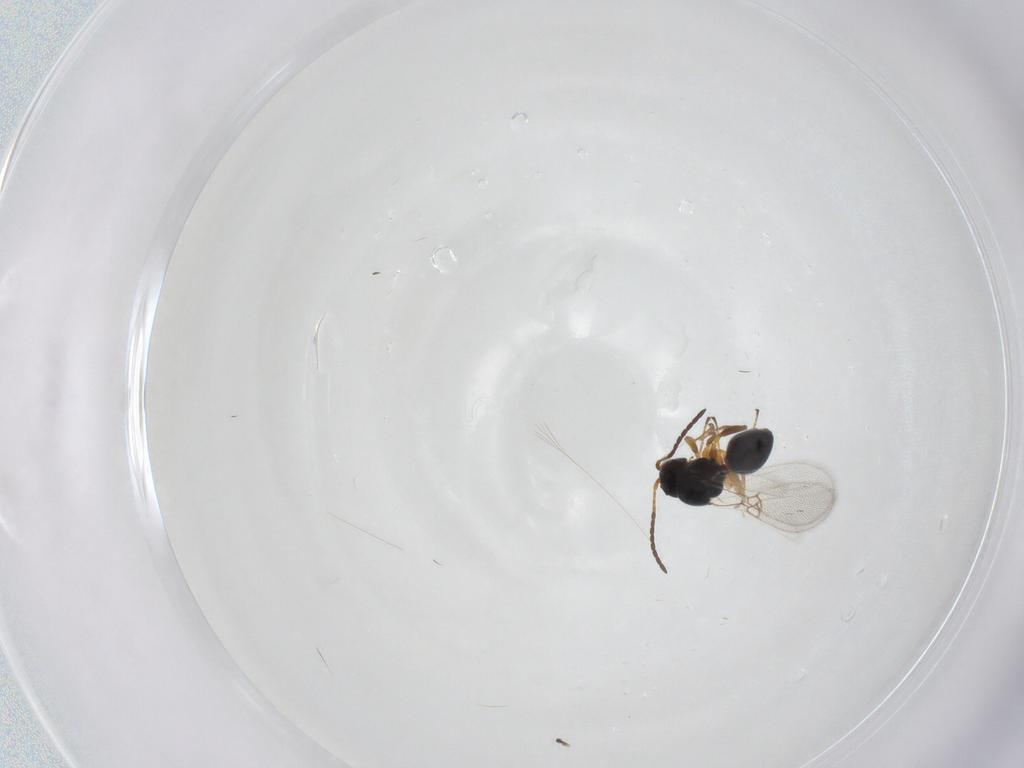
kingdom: Animalia
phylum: Arthropoda
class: Insecta
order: Hymenoptera
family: Figitidae
